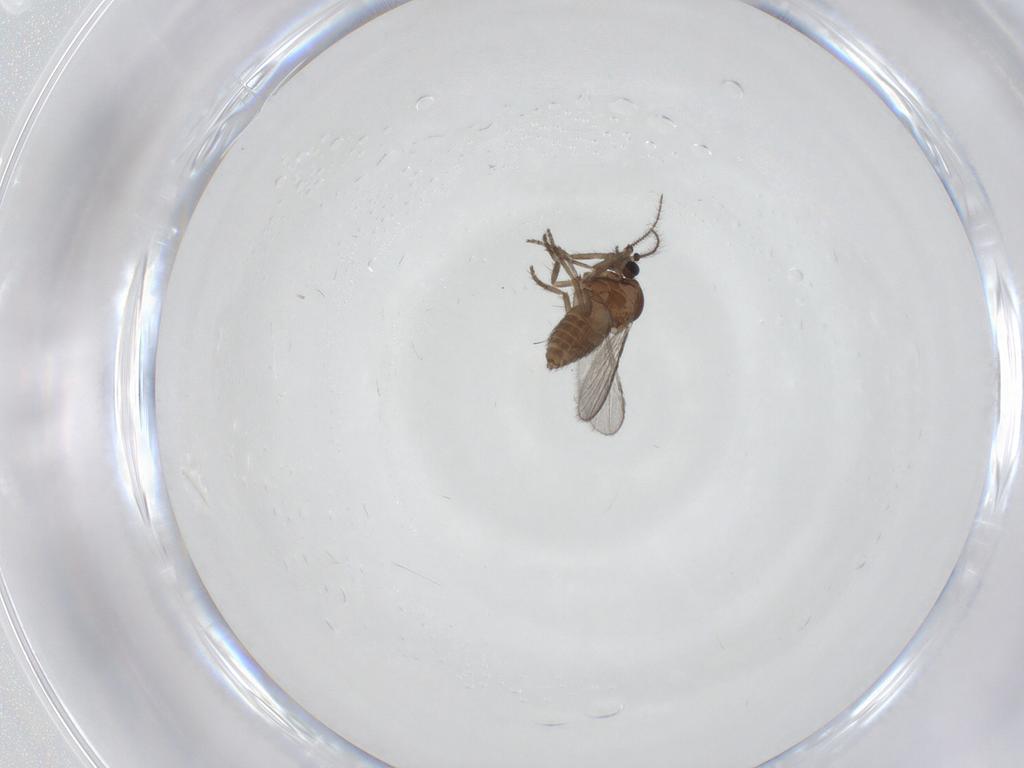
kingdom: Animalia
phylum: Arthropoda
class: Insecta
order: Diptera
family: Ceratopogonidae
